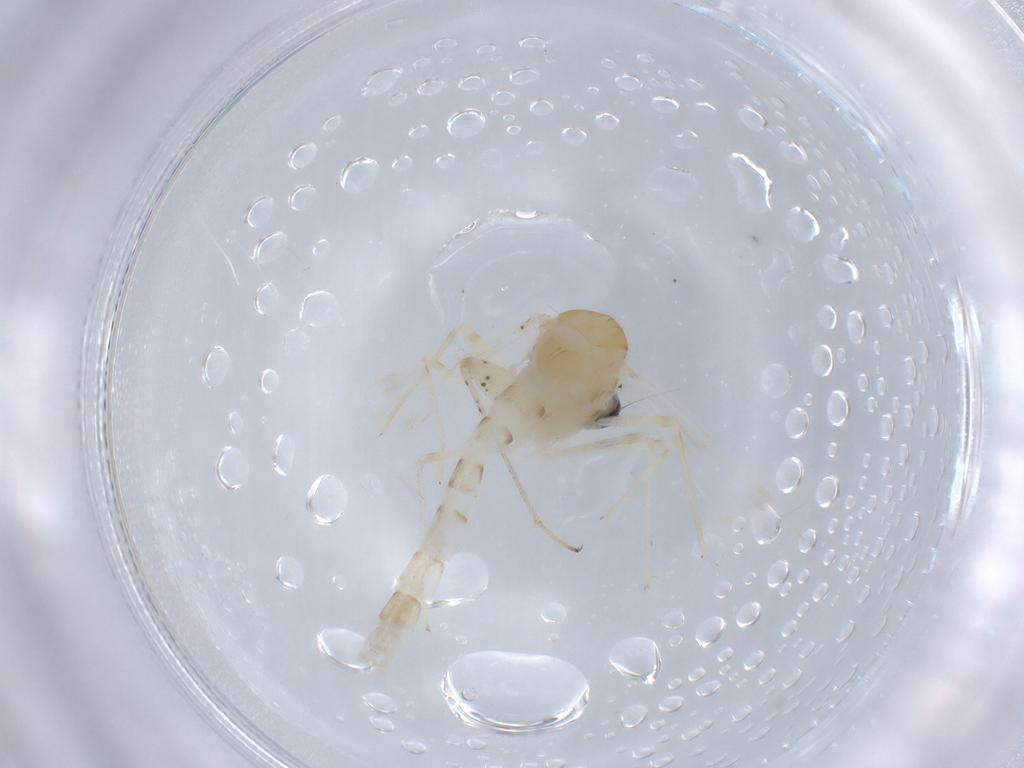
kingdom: Animalia
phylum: Arthropoda
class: Insecta
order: Diptera
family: Chironomidae
